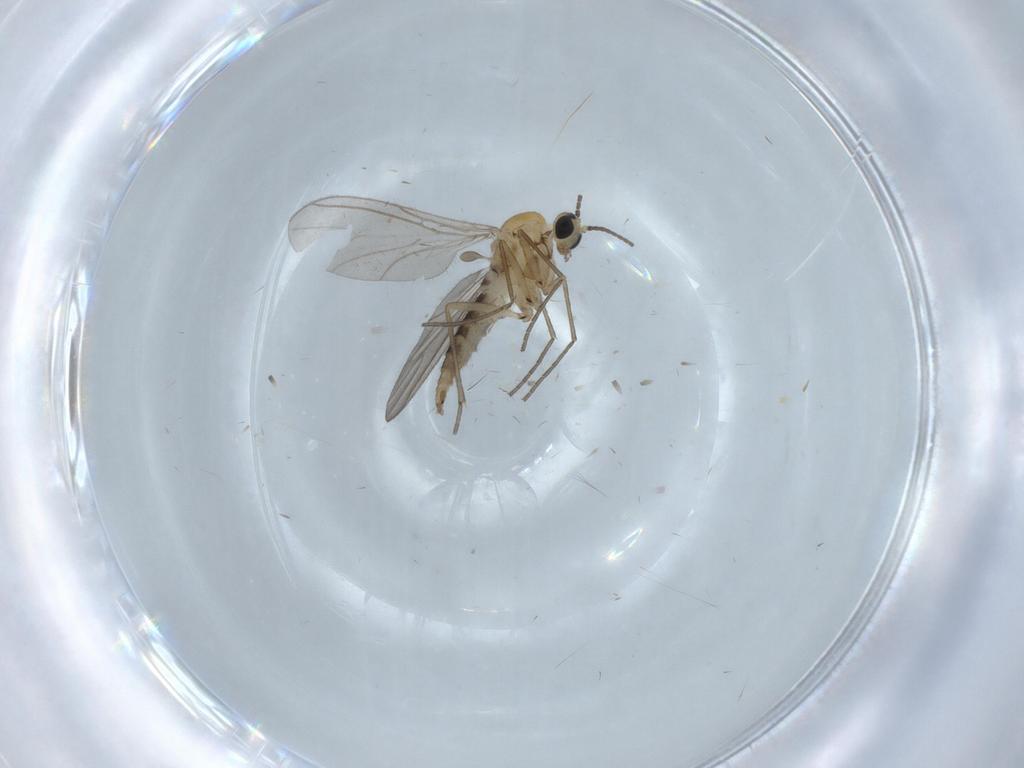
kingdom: Animalia
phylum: Arthropoda
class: Insecta
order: Diptera
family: Sciaridae
